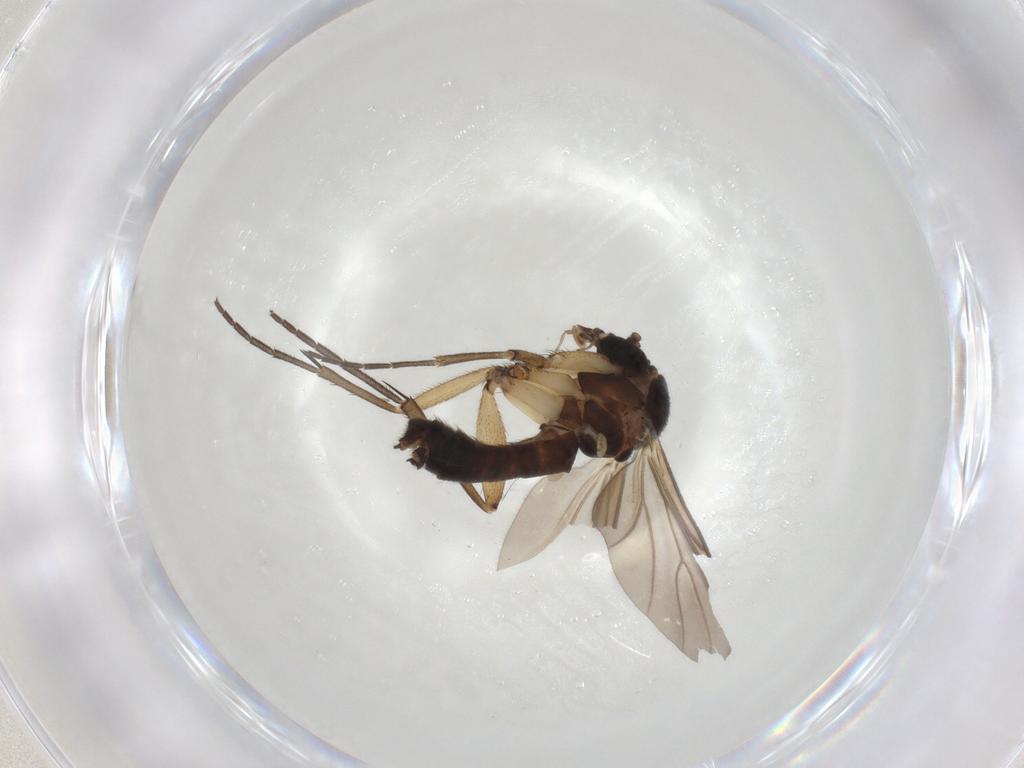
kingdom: Animalia
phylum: Arthropoda
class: Insecta
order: Diptera
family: Mycetophilidae
